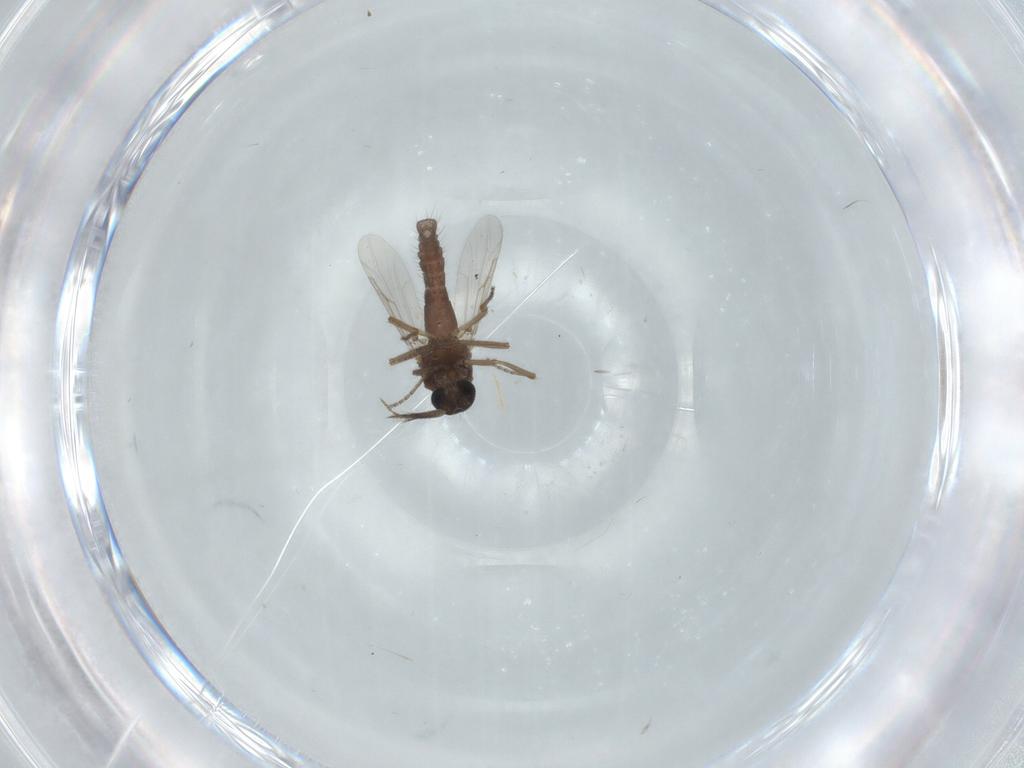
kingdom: Animalia
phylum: Arthropoda
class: Insecta
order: Diptera
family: Ceratopogonidae
